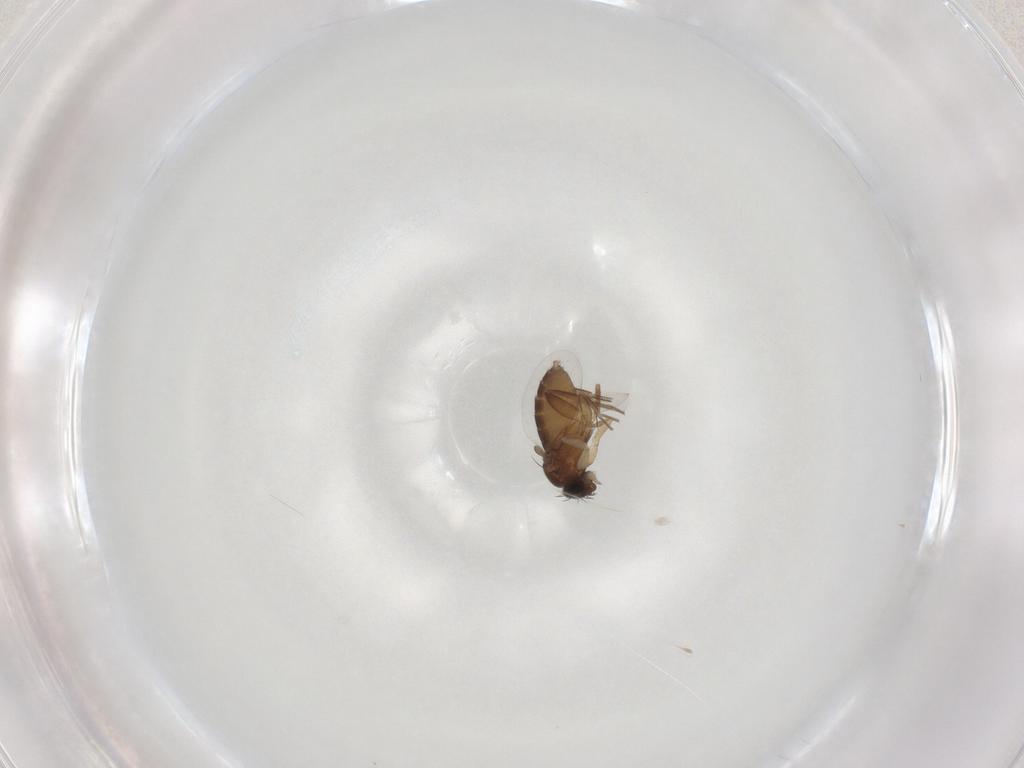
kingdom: Animalia
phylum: Arthropoda
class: Insecta
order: Diptera
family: Phoridae
